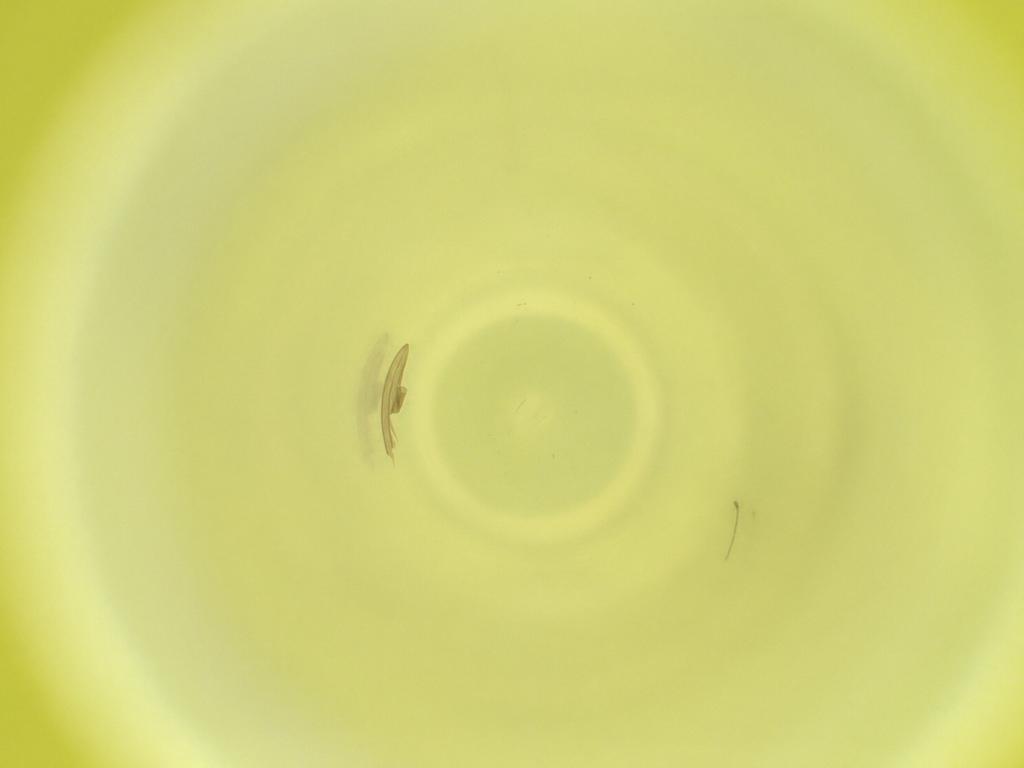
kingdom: Animalia
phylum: Arthropoda
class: Insecta
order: Diptera
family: Cecidomyiidae
